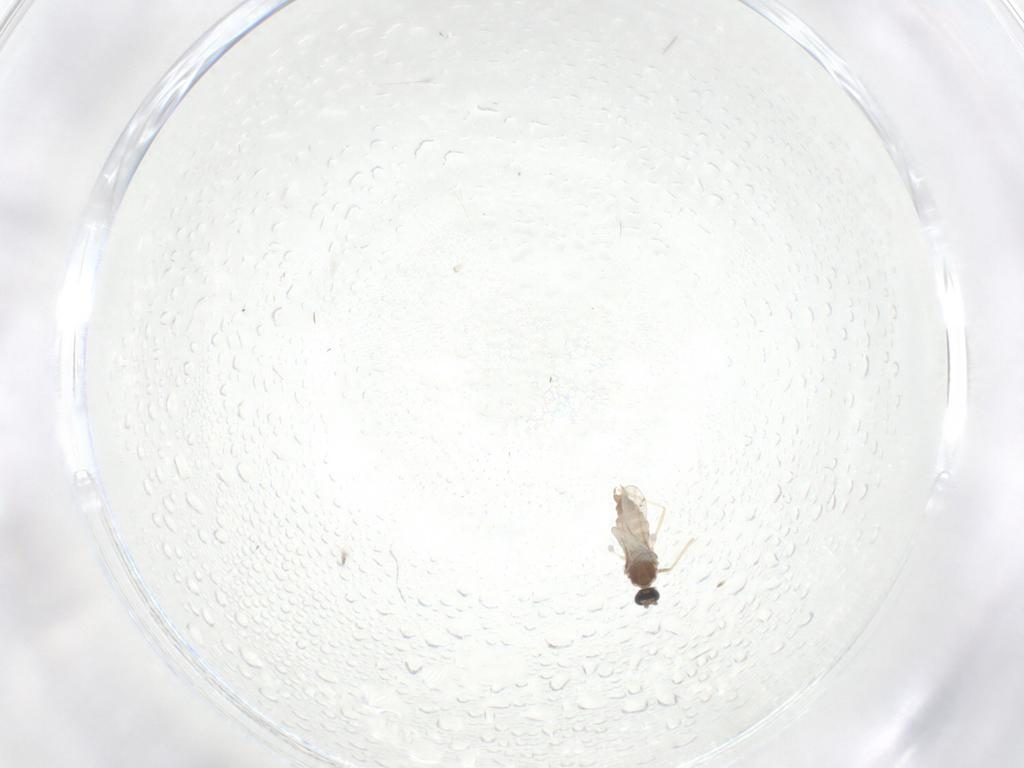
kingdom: Animalia
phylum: Arthropoda
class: Insecta
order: Diptera
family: Cecidomyiidae
